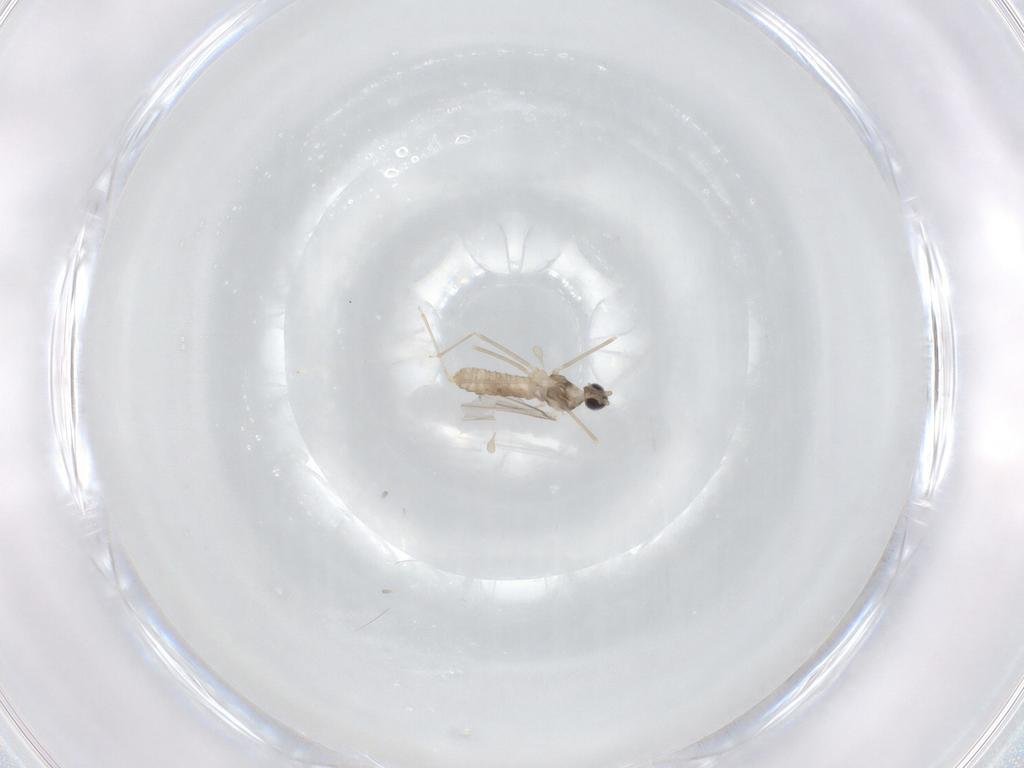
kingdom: Animalia
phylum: Arthropoda
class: Insecta
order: Diptera
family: Cecidomyiidae
